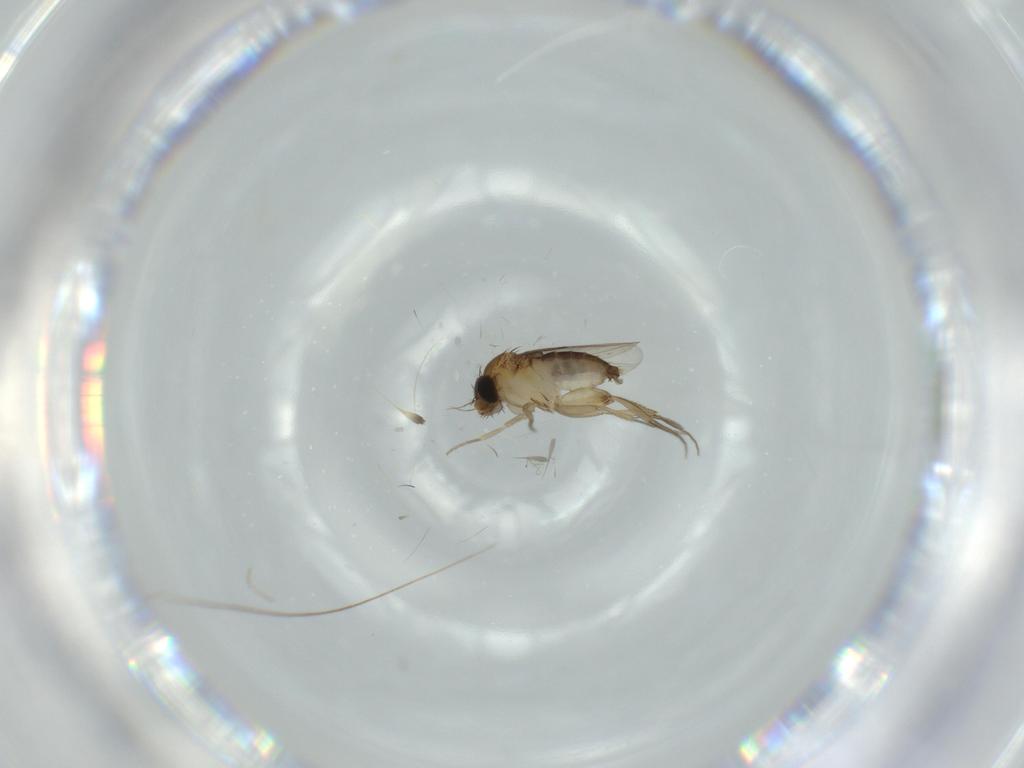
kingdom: Animalia
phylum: Arthropoda
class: Insecta
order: Diptera
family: Phoridae
